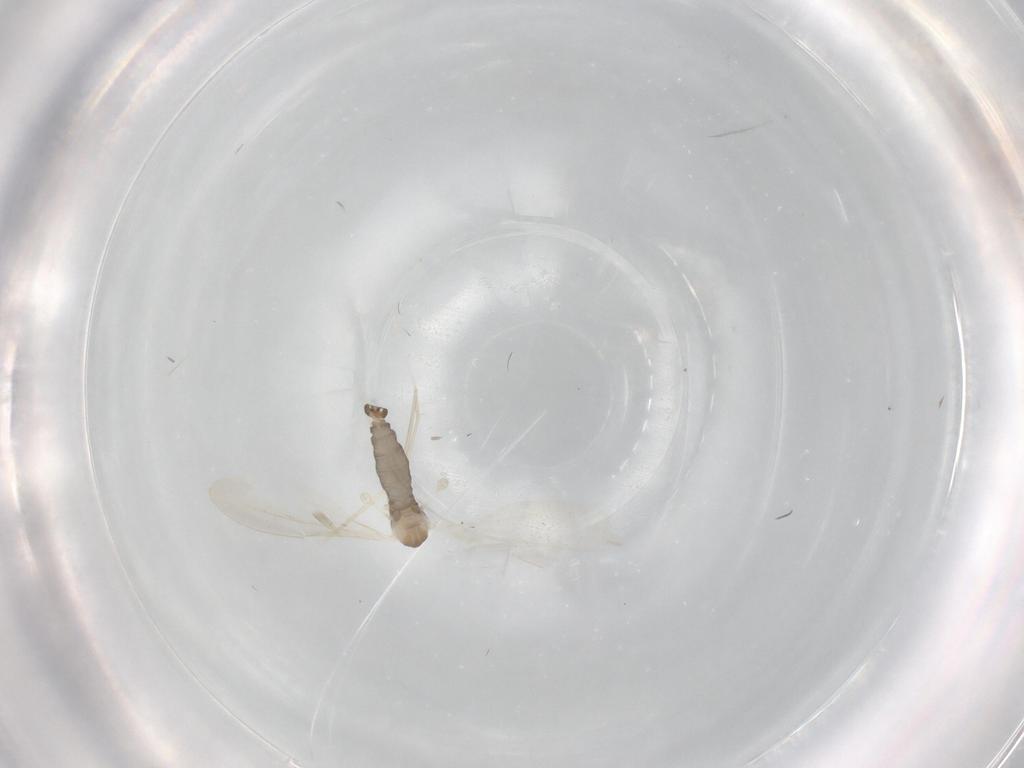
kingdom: Animalia
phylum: Arthropoda
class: Insecta
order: Diptera
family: Cecidomyiidae
